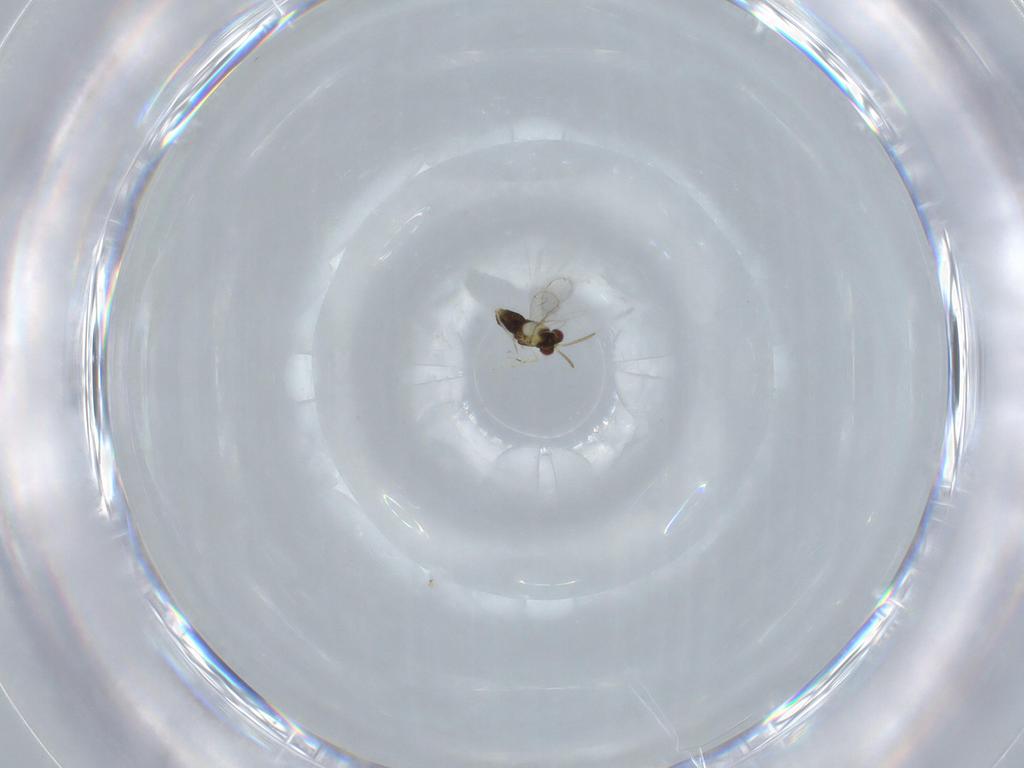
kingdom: Animalia
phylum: Arthropoda
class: Insecta
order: Hymenoptera
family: Aphelinidae
